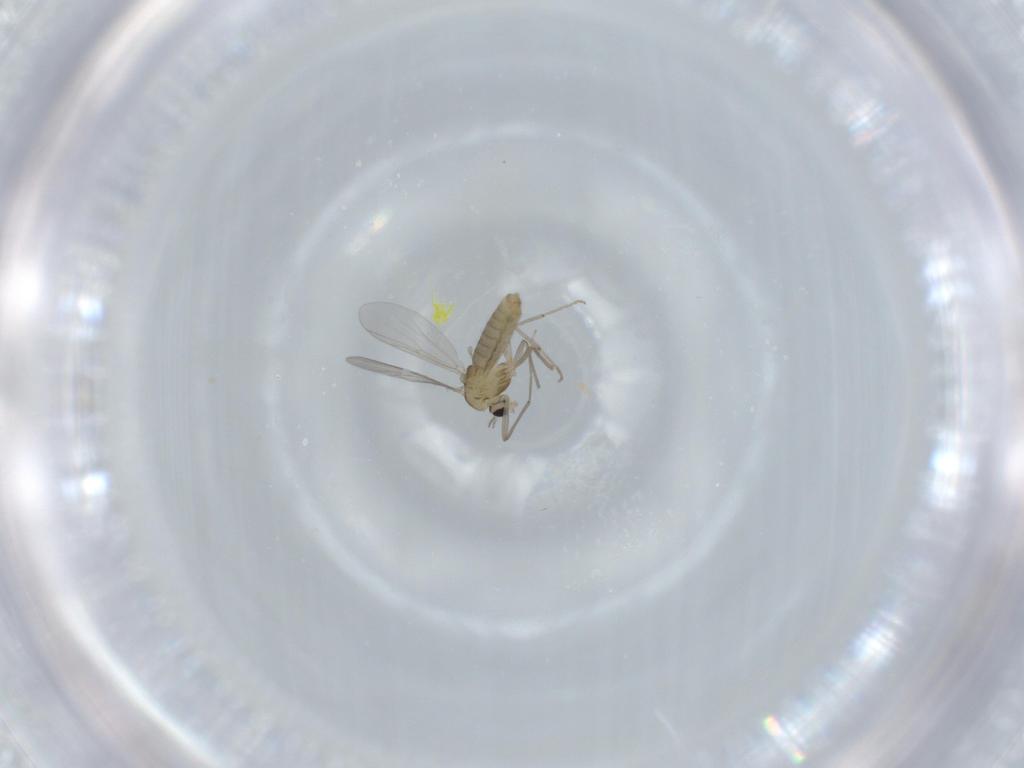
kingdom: Animalia
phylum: Arthropoda
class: Insecta
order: Diptera
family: Chironomidae
